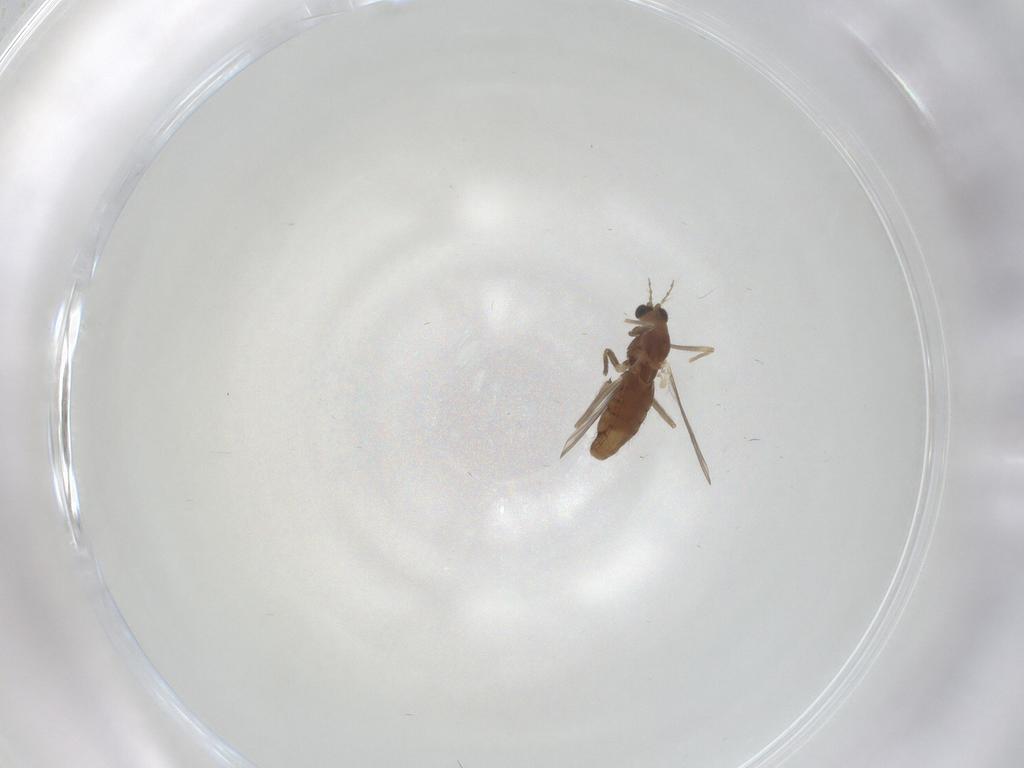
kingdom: Animalia
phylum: Arthropoda
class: Insecta
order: Diptera
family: Chironomidae
